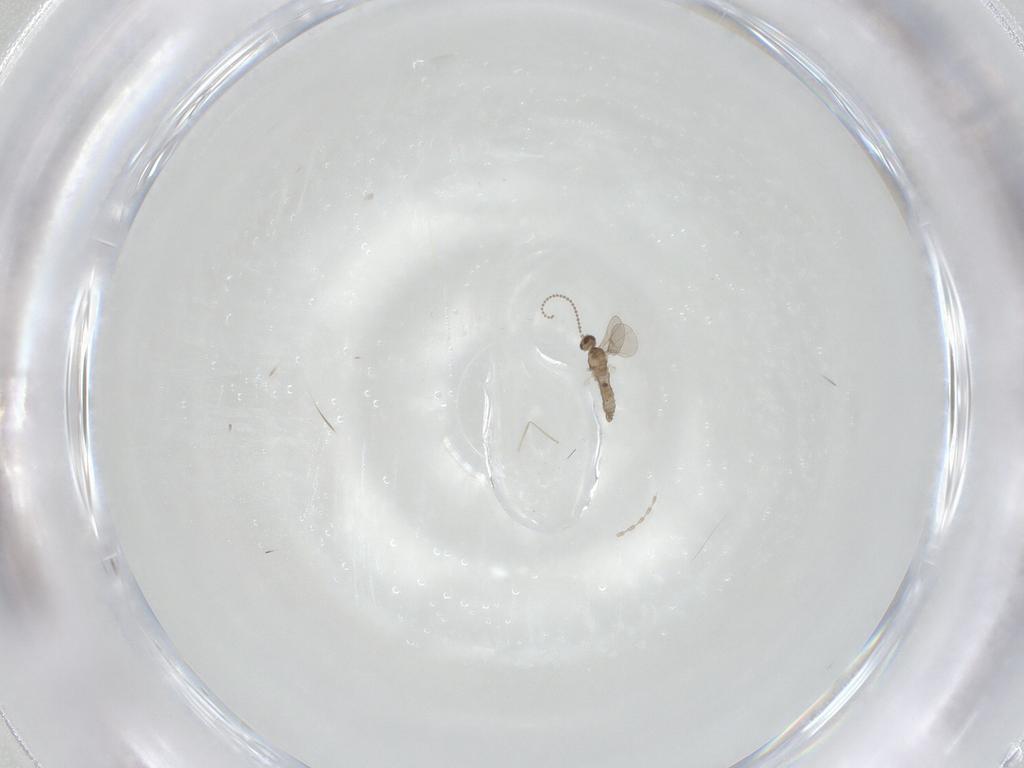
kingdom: Animalia
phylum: Arthropoda
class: Insecta
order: Diptera
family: Cecidomyiidae
